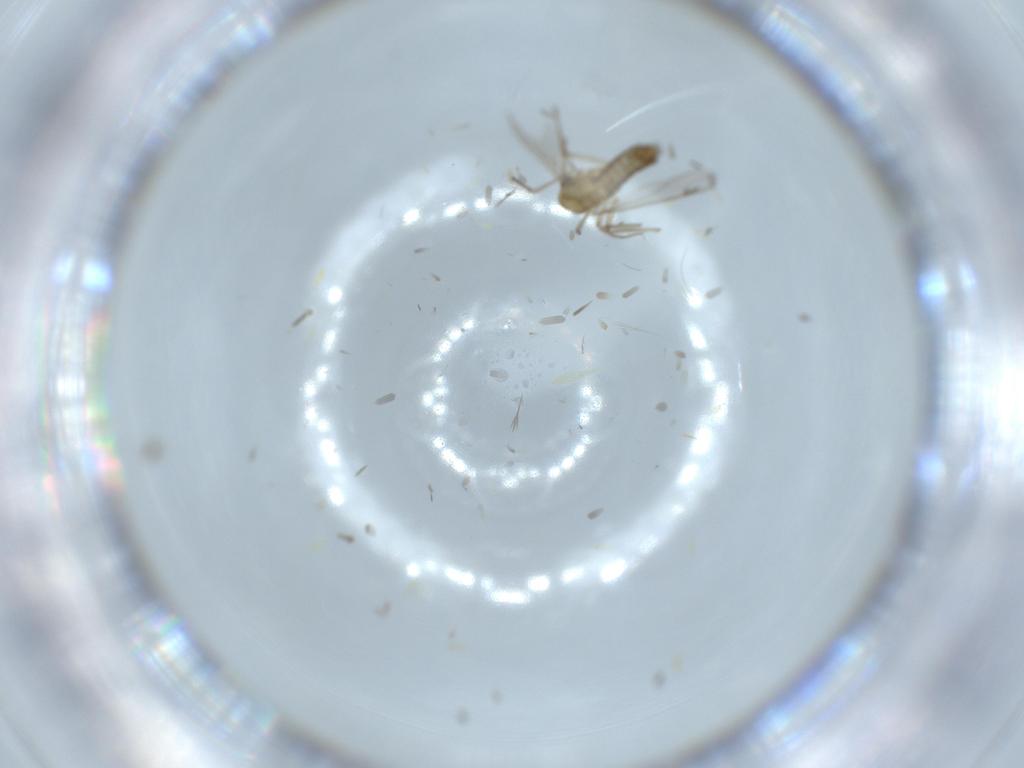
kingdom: Animalia
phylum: Arthropoda
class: Insecta
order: Diptera
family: Chironomidae
